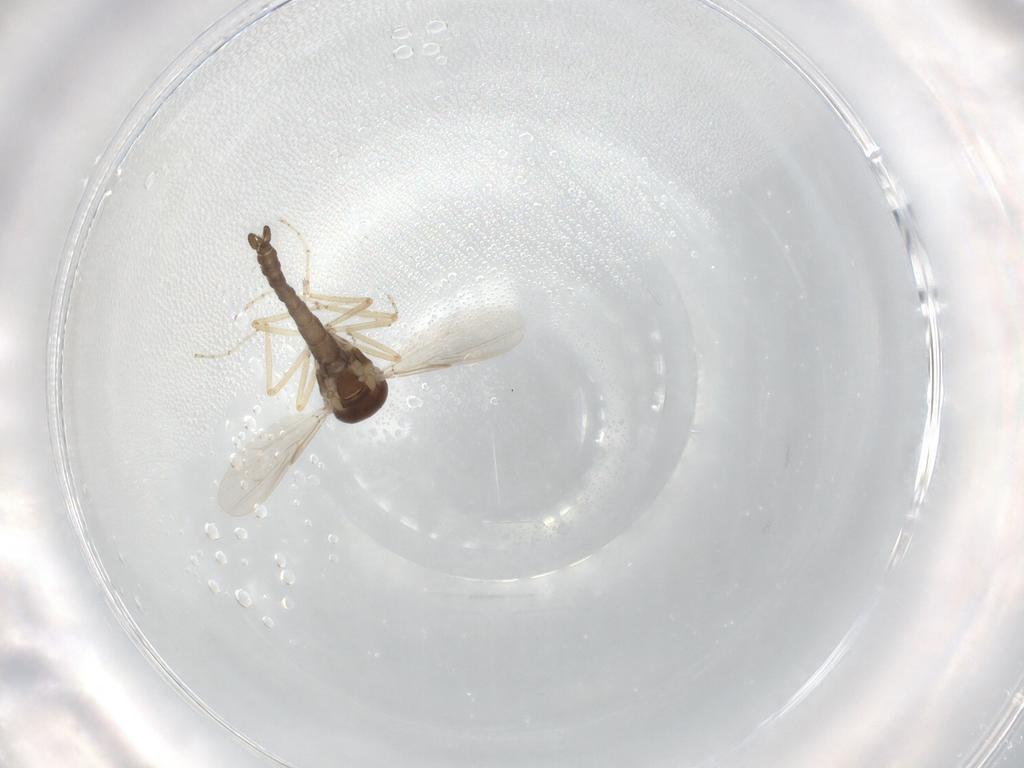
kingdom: Animalia
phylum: Arthropoda
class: Insecta
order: Diptera
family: Ceratopogonidae
